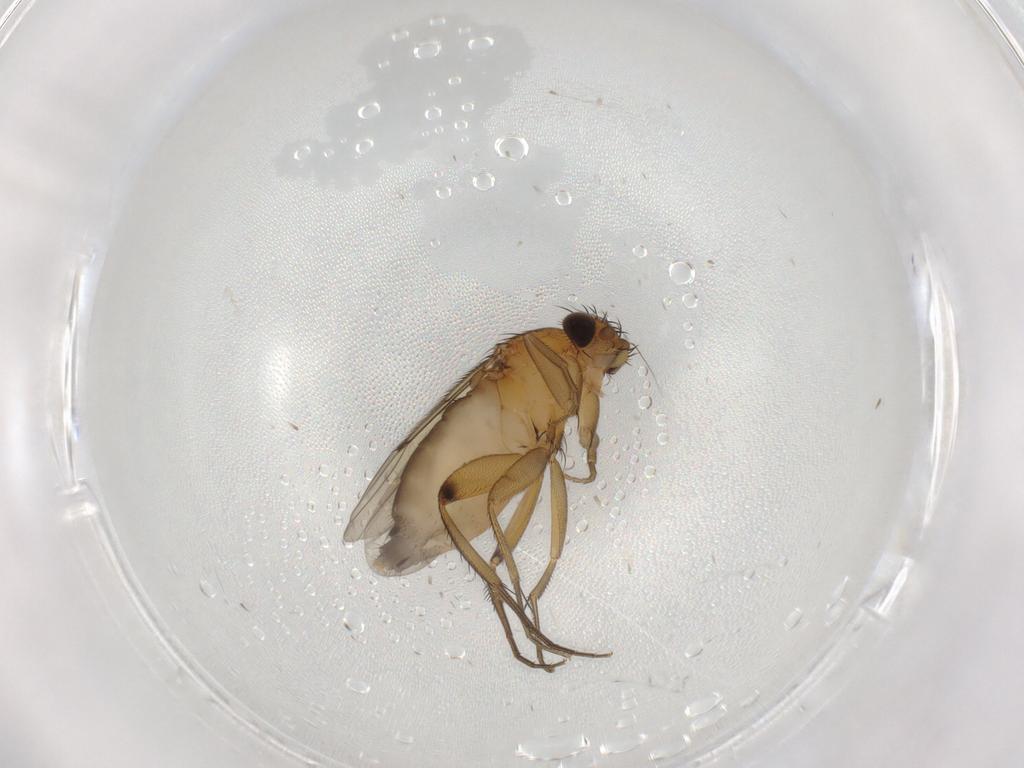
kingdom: Animalia
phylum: Arthropoda
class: Insecta
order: Diptera
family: Phoridae
